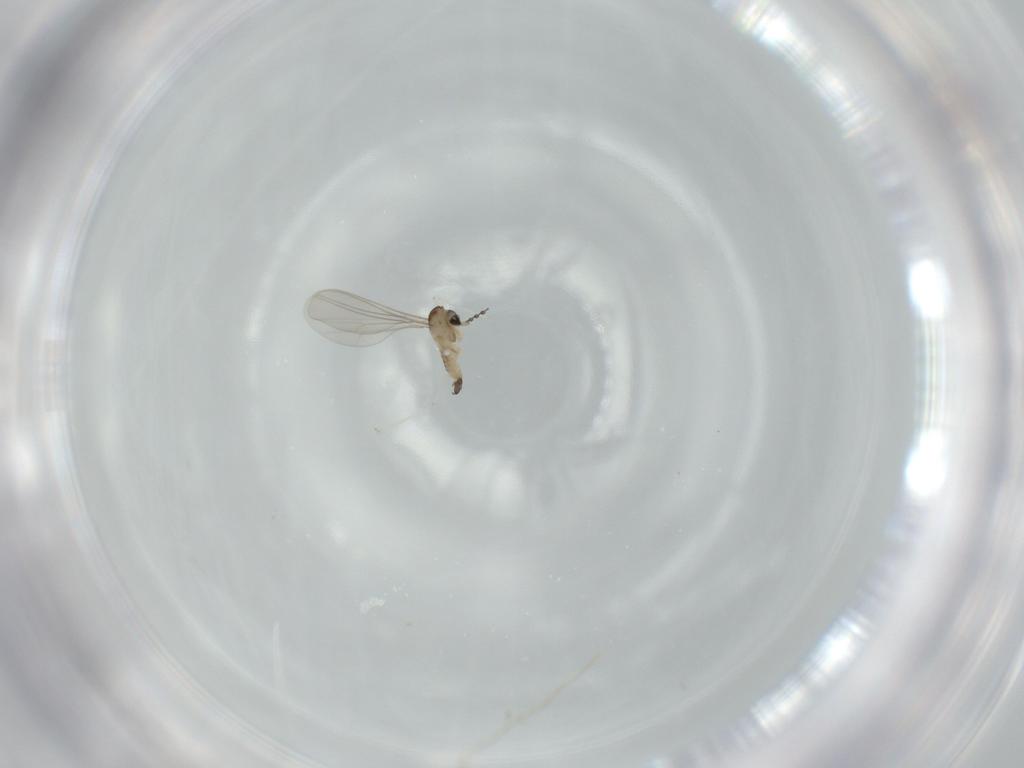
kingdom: Animalia
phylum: Arthropoda
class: Insecta
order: Diptera
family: Cecidomyiidae
